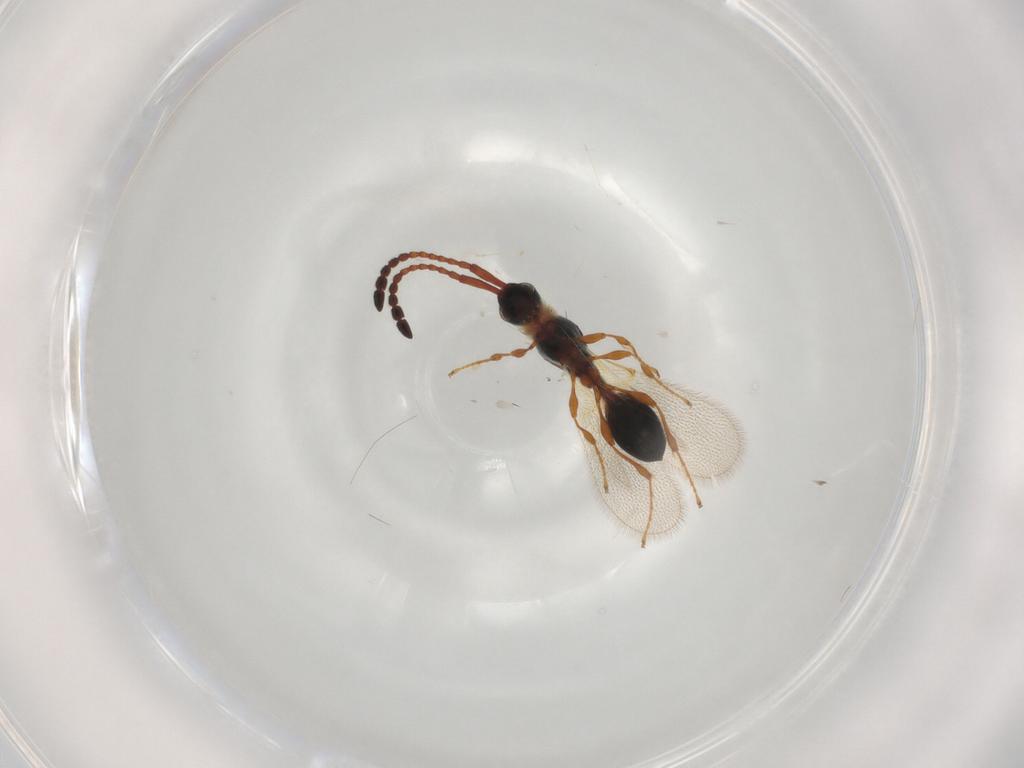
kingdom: Animalia
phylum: Arthropoda
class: Insecta
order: Hymenoptera
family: Diapriidae
